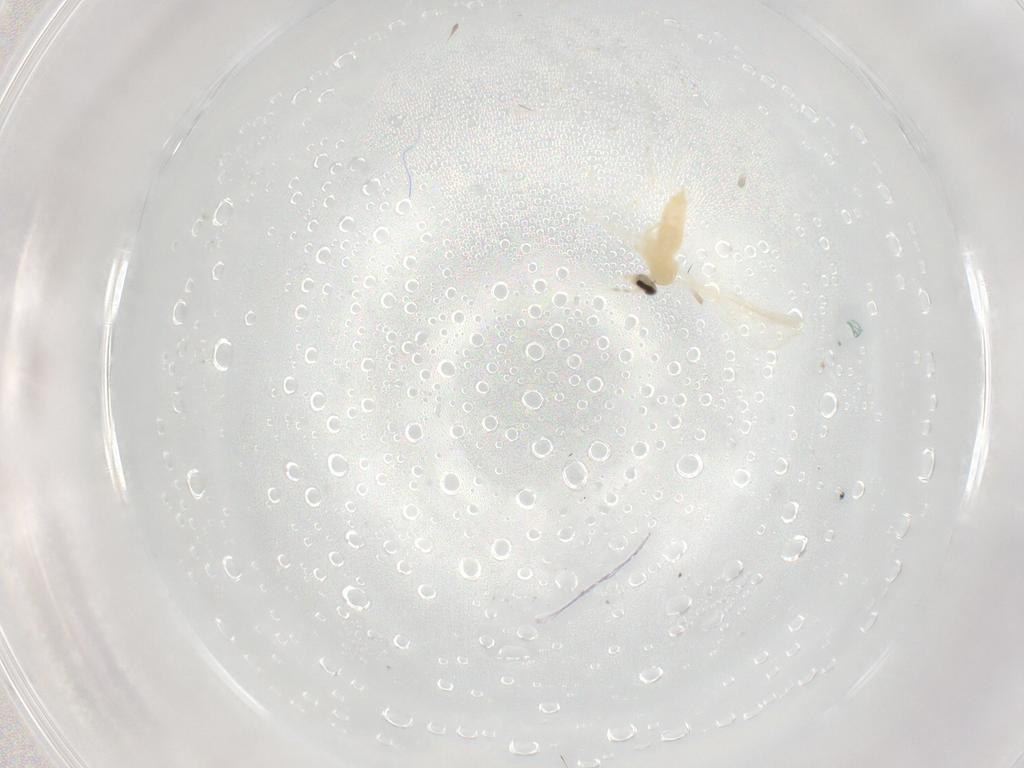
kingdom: Animalia
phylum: Arthropoda
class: Insecta
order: Diptera
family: Cecidomyiidae
